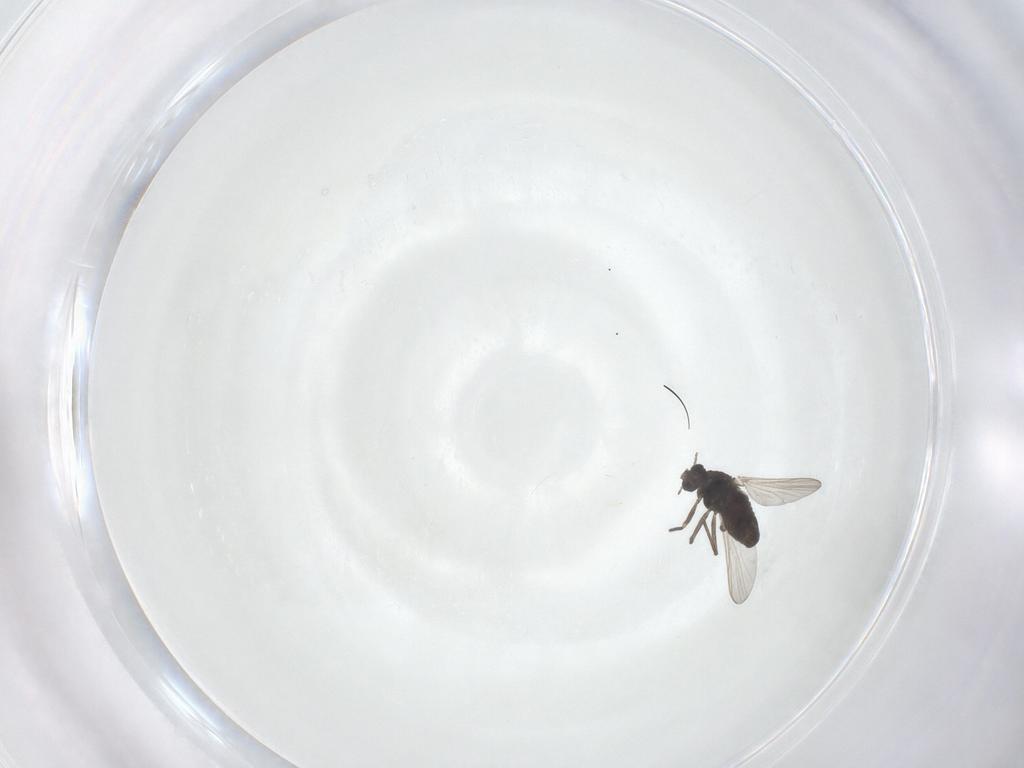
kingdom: Animalia
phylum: Arthropoda
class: Insecta
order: Diptera
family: Chironomidae
